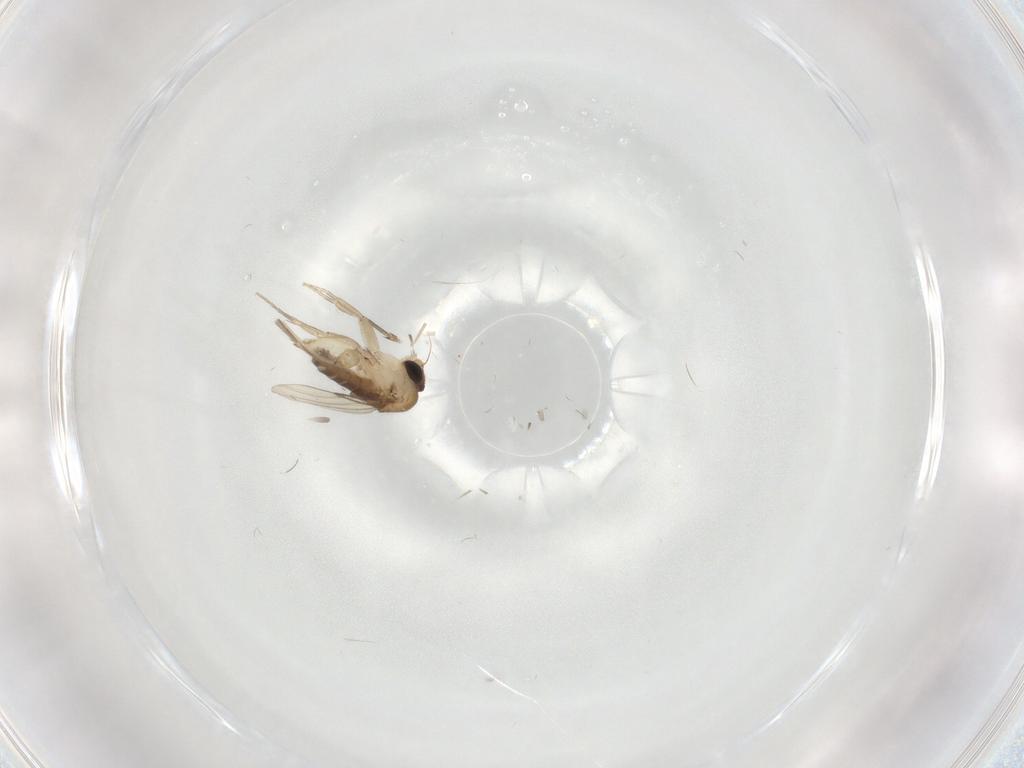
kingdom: Animalia
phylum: Arthropoda
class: Insecta
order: Diptera
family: Phoridae
